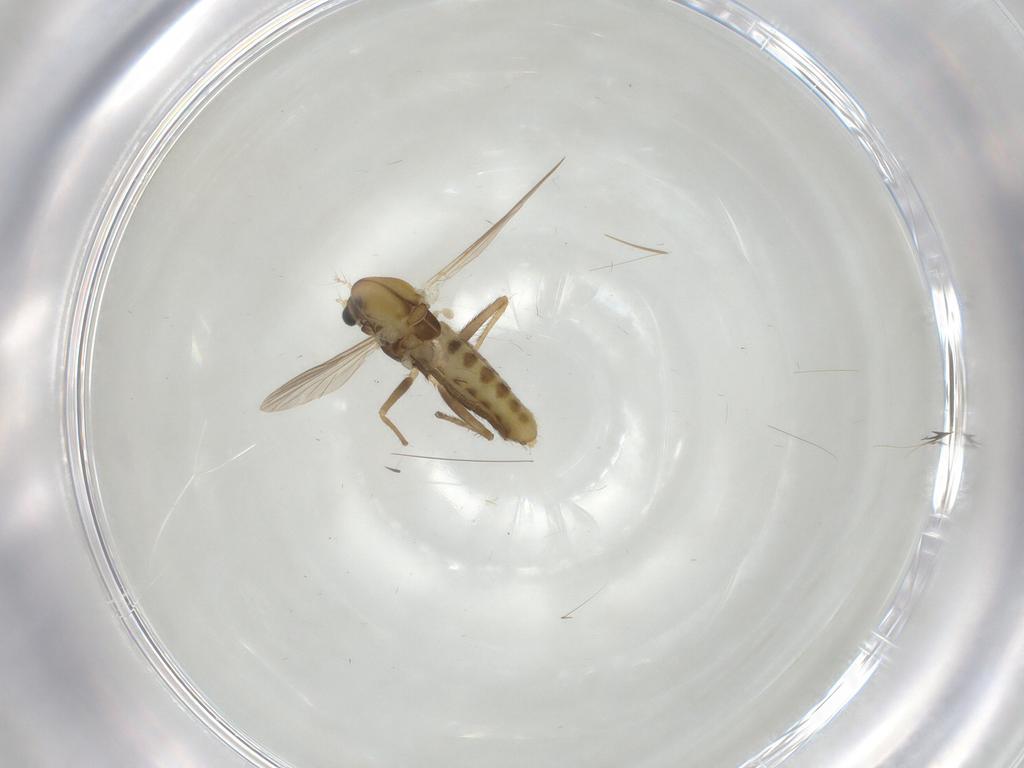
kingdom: Animalia
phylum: Arthropoda
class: Insecta
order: Diptera
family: Chironomidae
